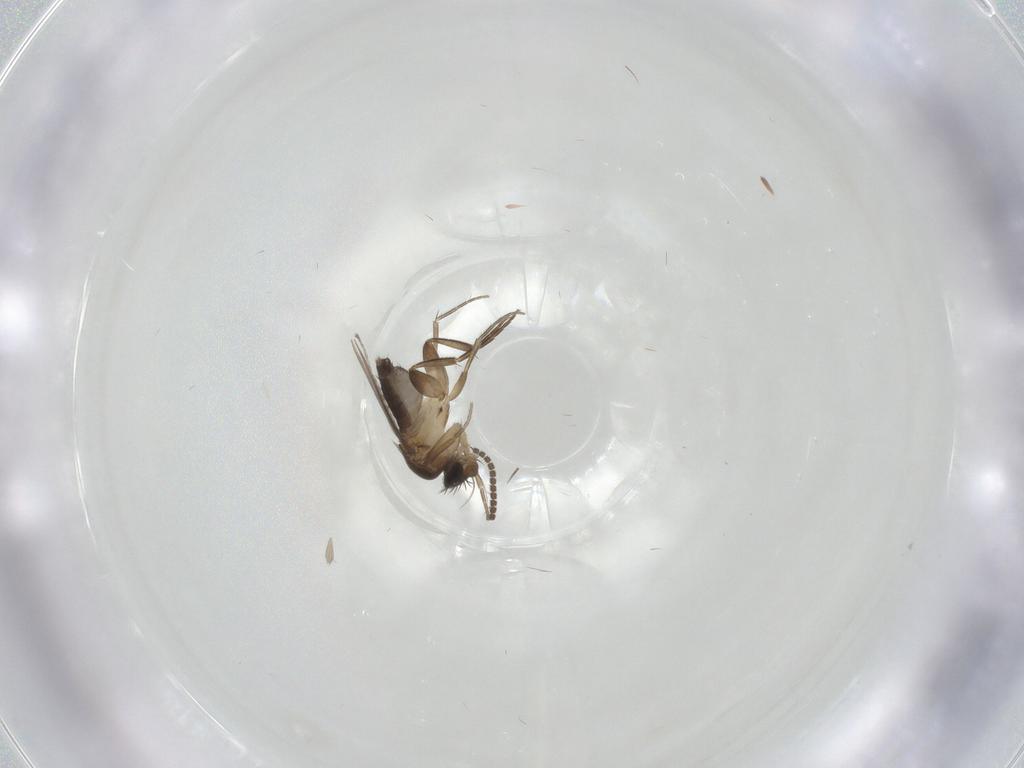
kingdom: Animalia
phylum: Arthropoda
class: Insecta
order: Diptera
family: Phoridae
